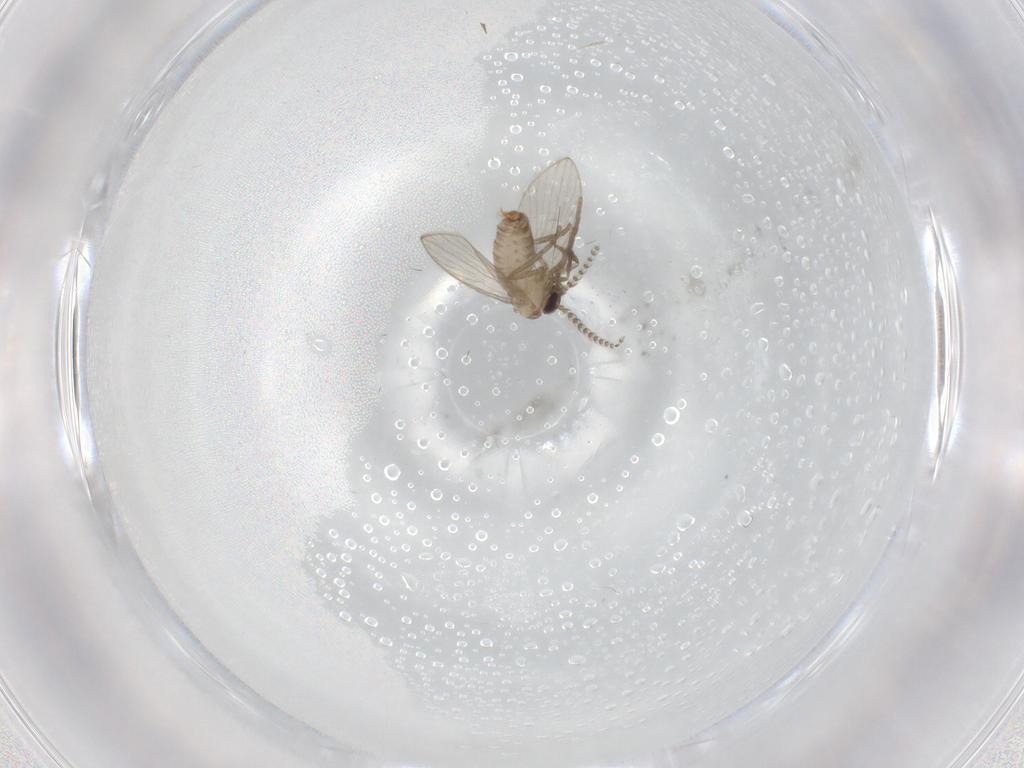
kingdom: Animalia
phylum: Arthropoda
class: Insecta
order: Diptera
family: Psychodidae
